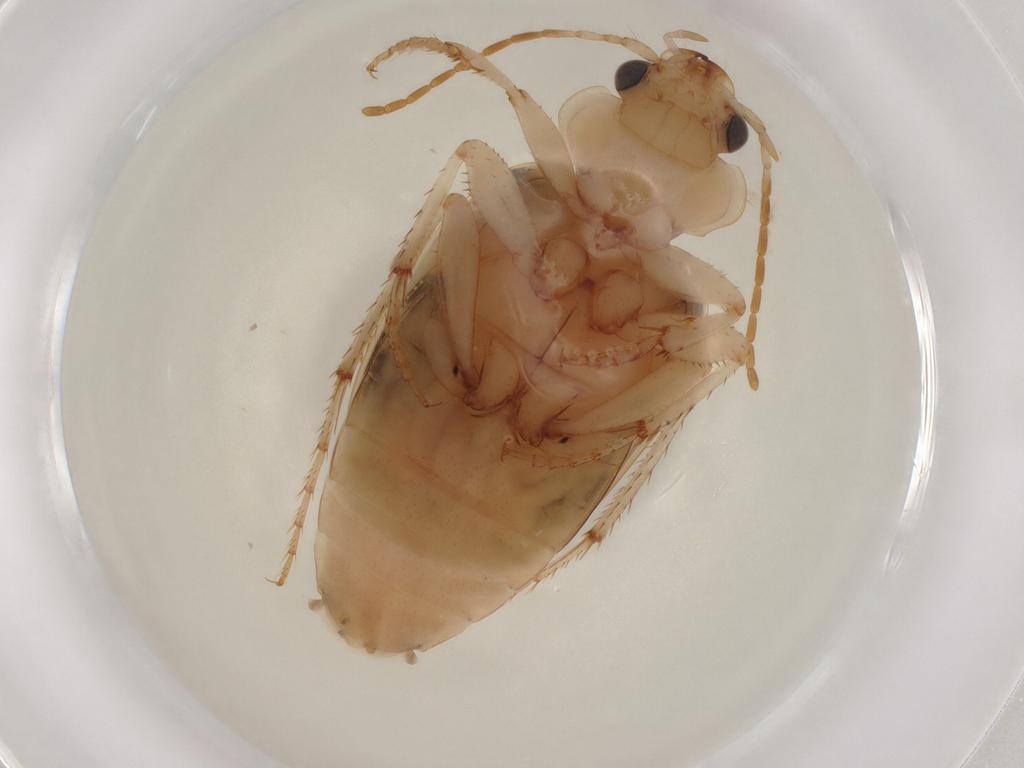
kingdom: Animalia
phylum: Arthropoda
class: Insecta
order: Coleoptera
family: Carabidae
